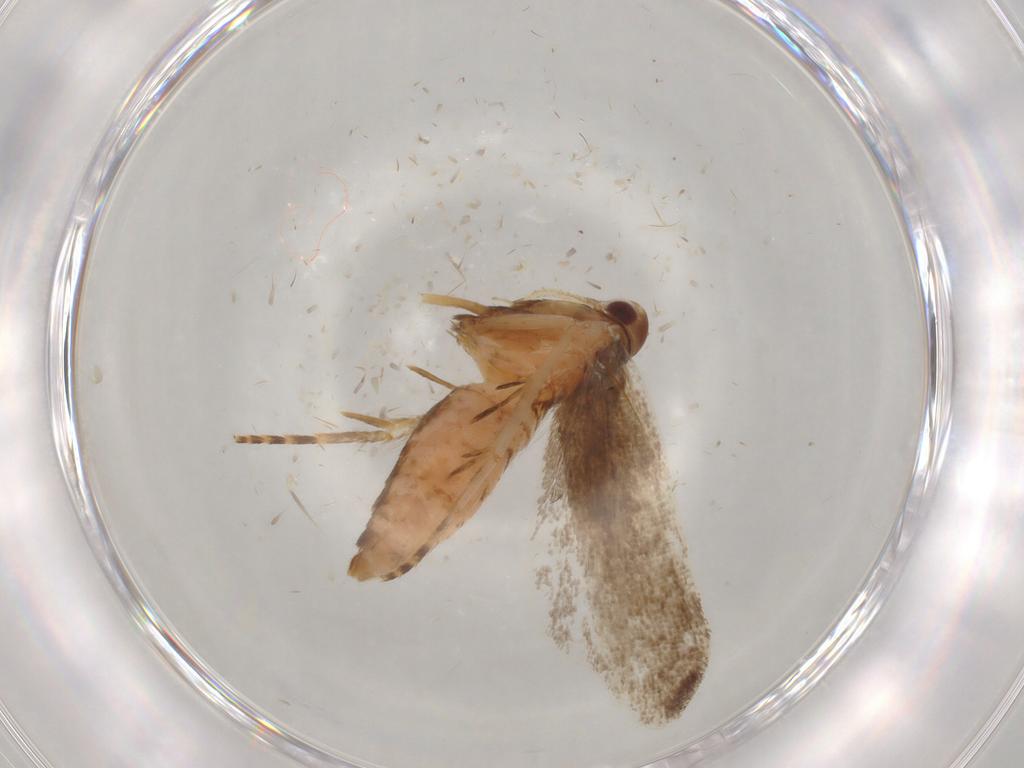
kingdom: Animalia
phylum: Arthropoda
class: Insecta
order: Lepidoptera
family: Gelechiidae
